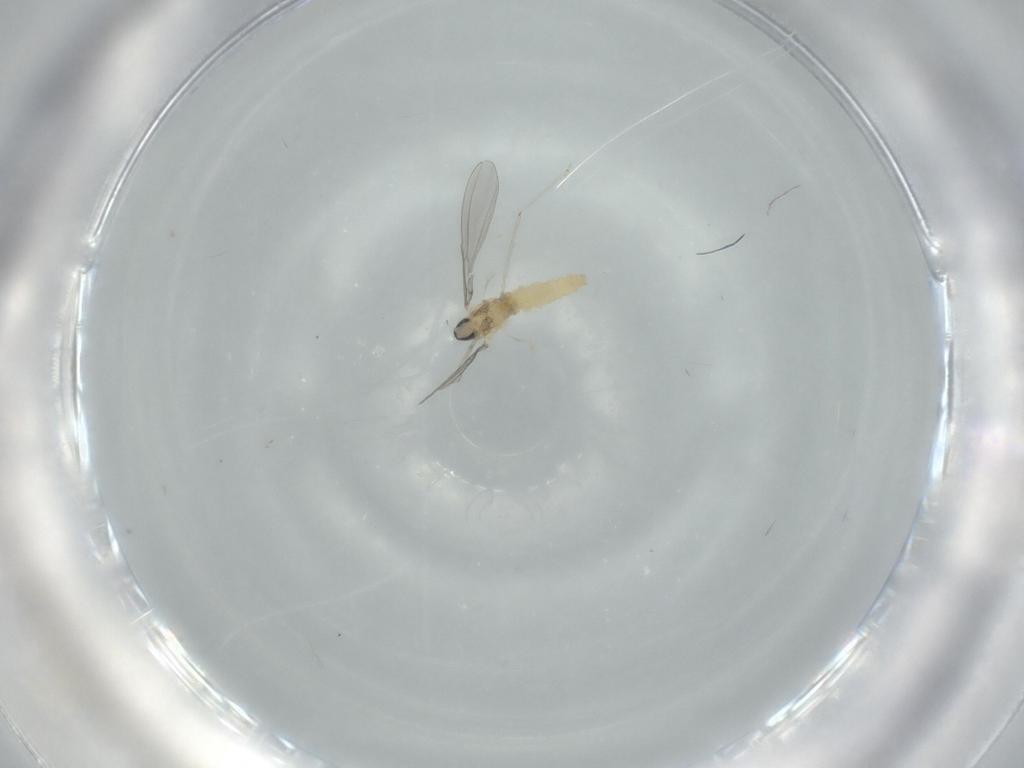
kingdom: Animalia
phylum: Arthropoda
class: Insecta
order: Diptera
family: Cecidomyiidae
